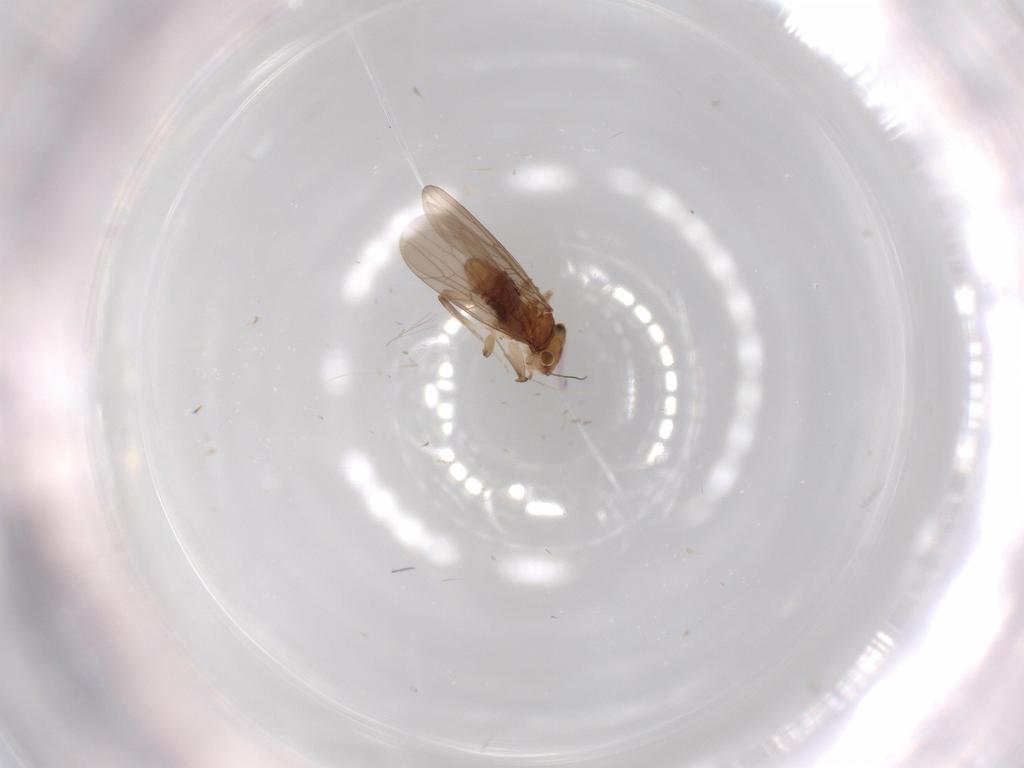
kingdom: Animalia
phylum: Arthropoda
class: Insecta
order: Psocodea
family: Lepidopsocidae
